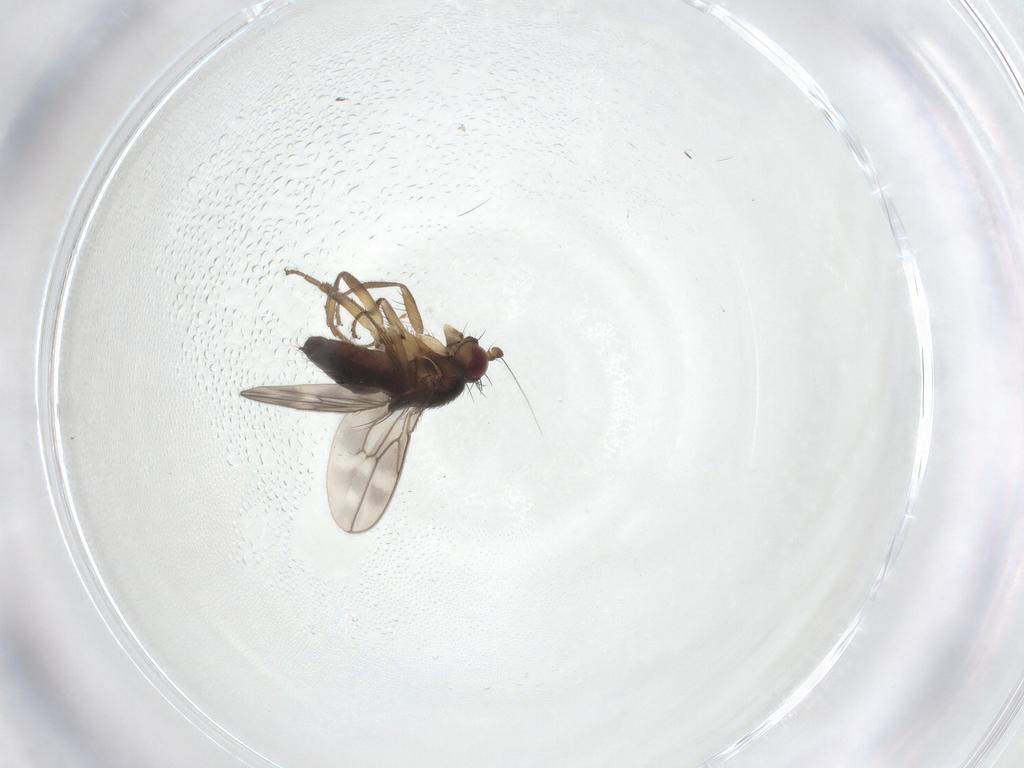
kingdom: Animalia
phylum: Arthropoda
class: Insecta
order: Diptera
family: Sphaeroceridae
